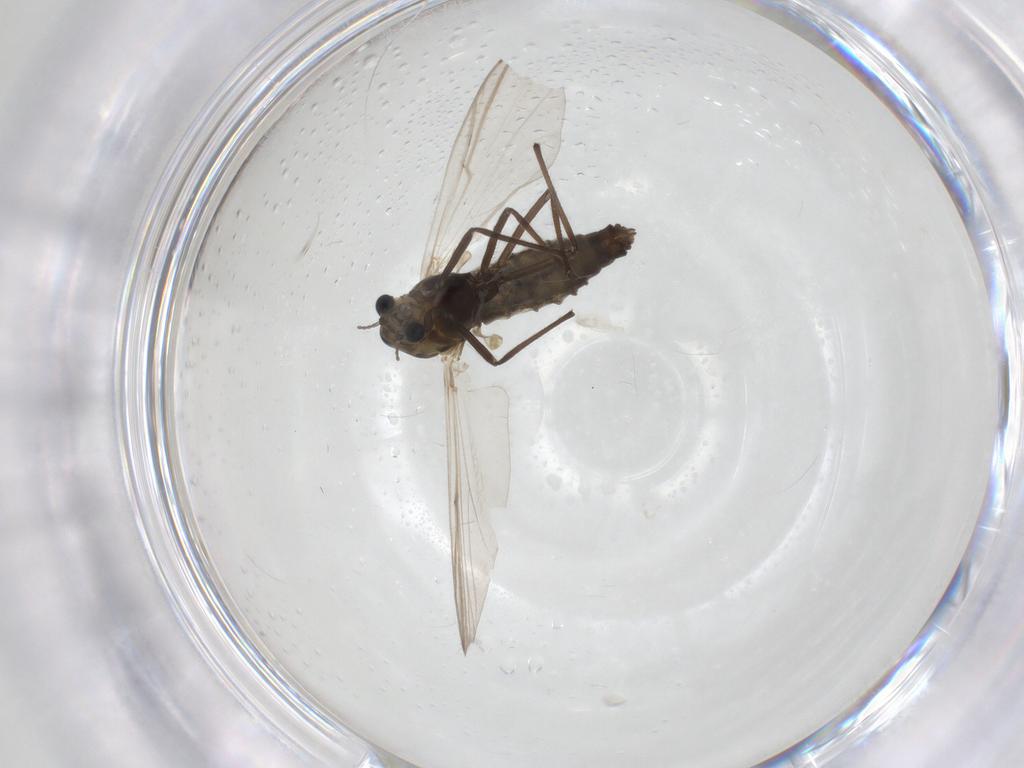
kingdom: Animalia
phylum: Arthropoda
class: Insecta
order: Diptera
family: Chironomidae
